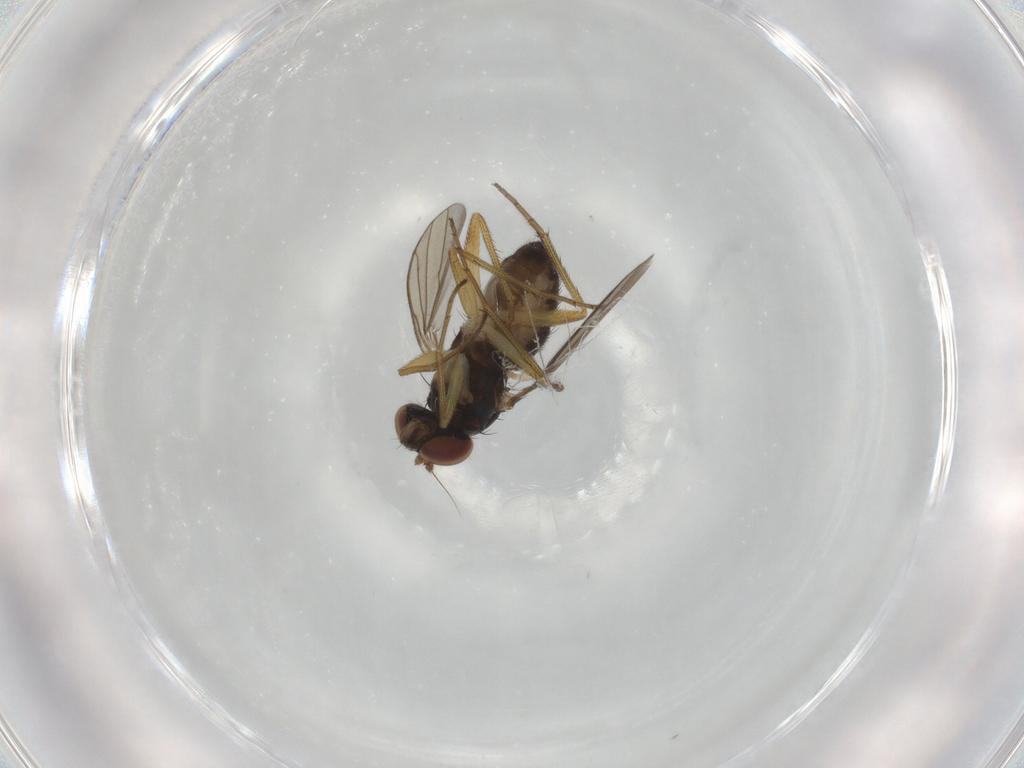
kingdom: Animalia
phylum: Arthropoda
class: Insecta
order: Diptera
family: Dolichopodidae
